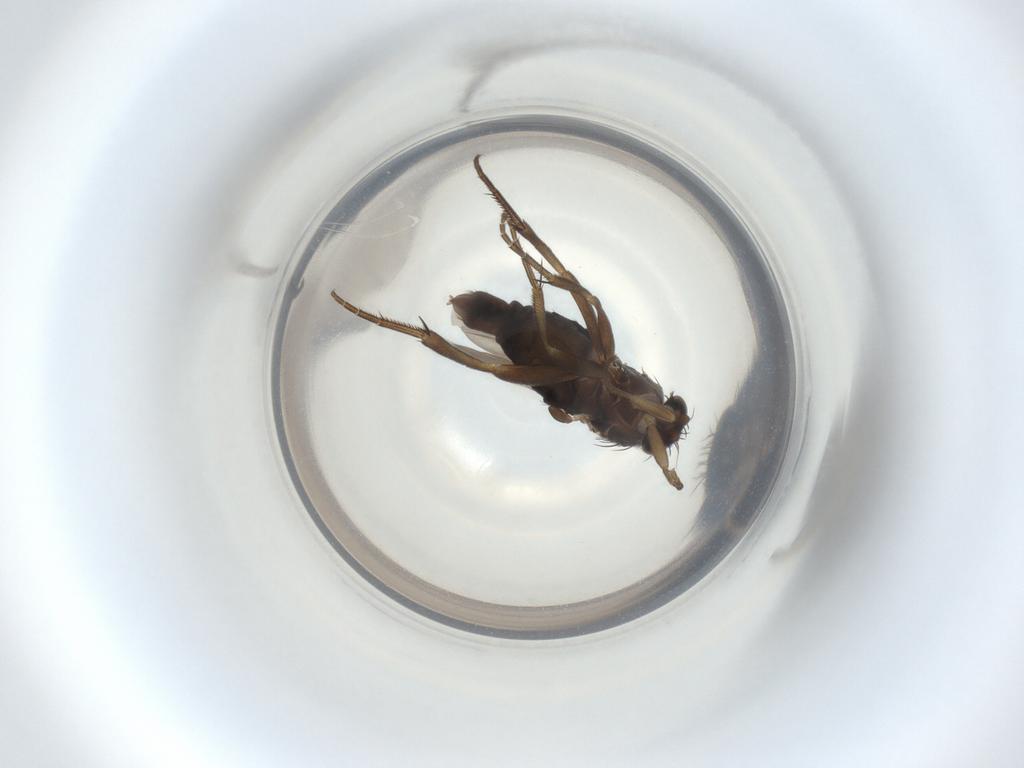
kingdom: Animalia
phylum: Arthropoda
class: Insecta
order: Diptera
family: Phoridae
